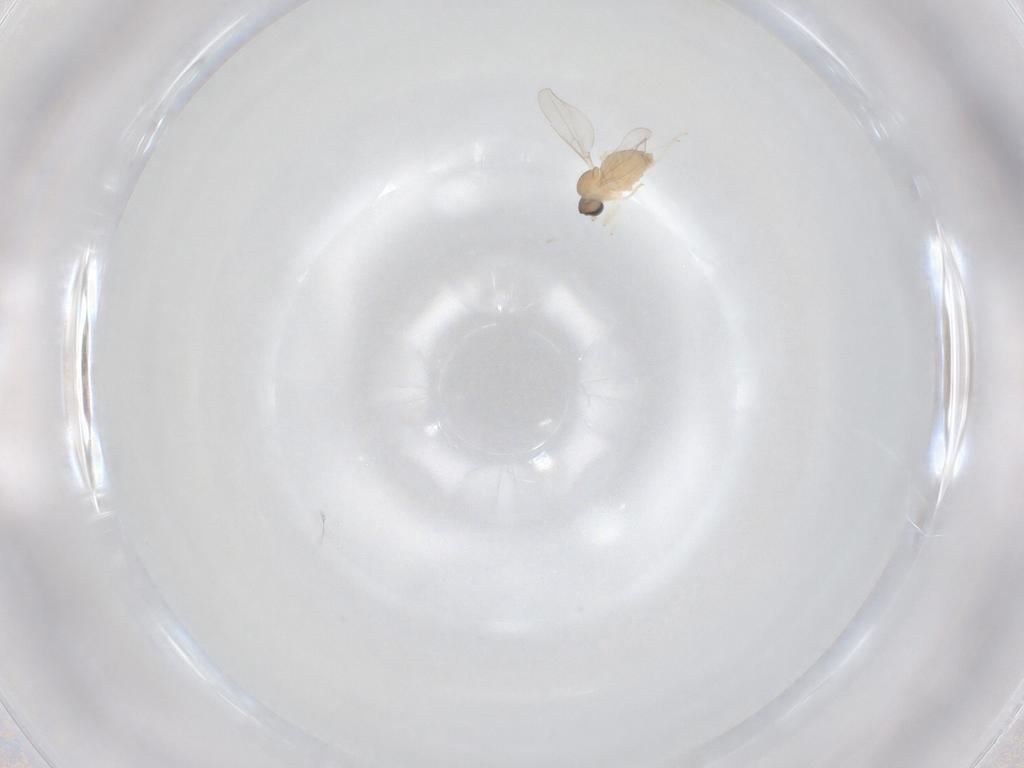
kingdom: Animalia
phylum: Arthropoda
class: Insecta
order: Diptera
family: Cecidomyiidae
